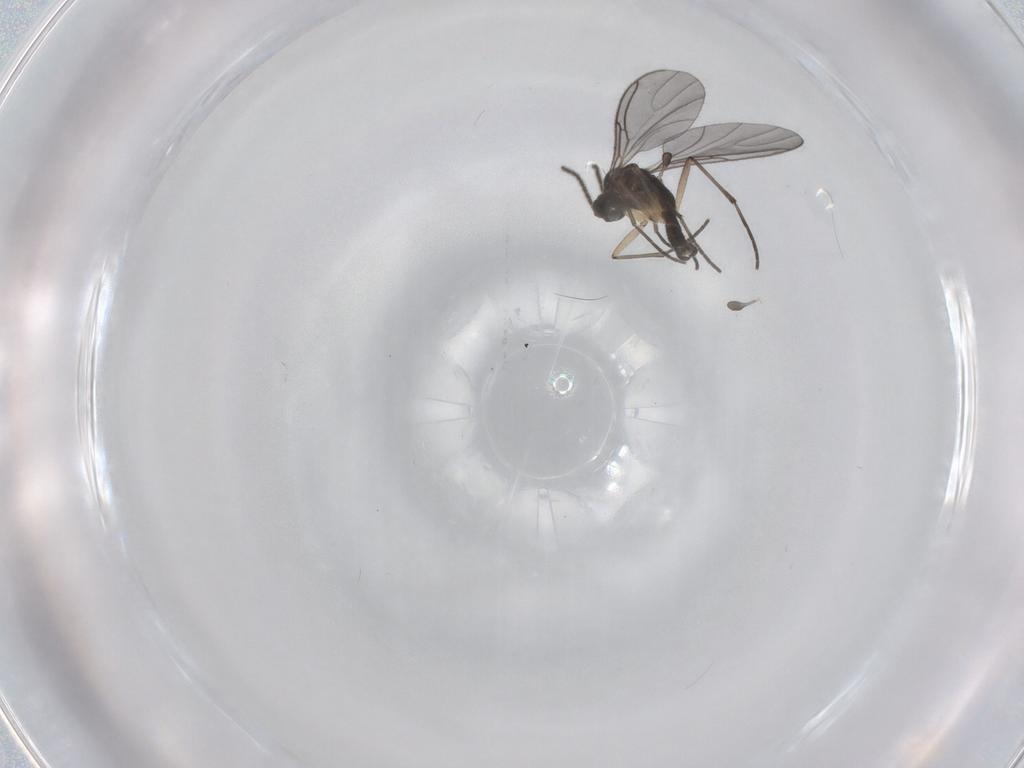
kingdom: Animalia
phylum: Arthropoda
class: Insecta
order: Diptera
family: Sciaridae
